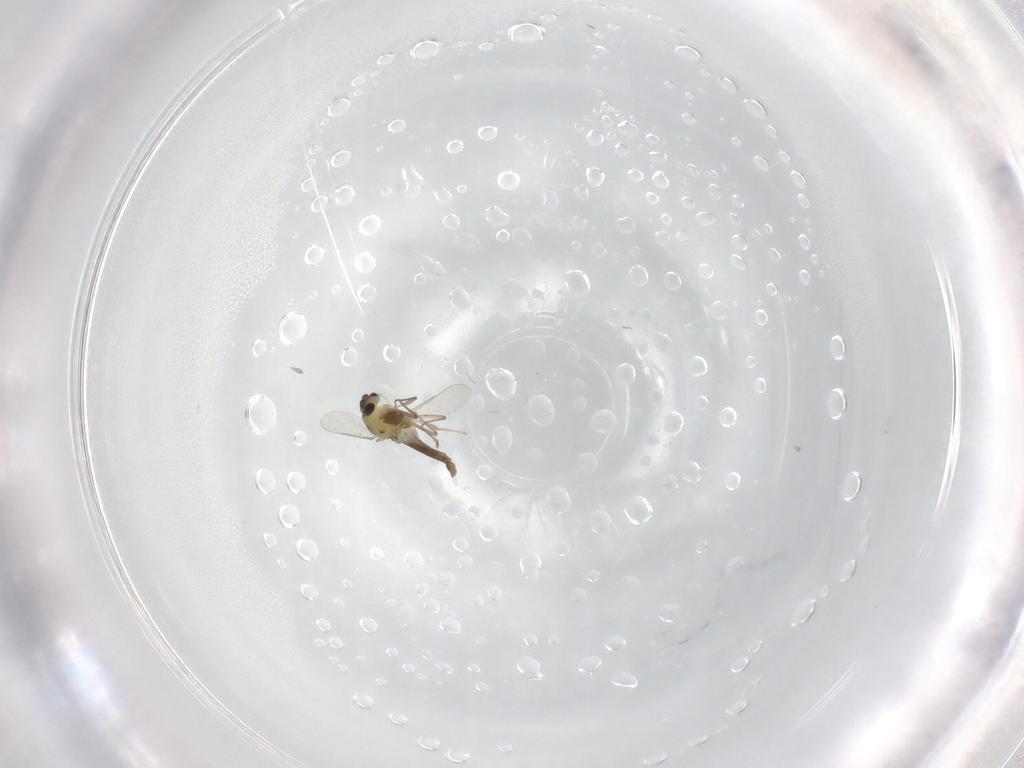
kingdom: Animalia
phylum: Arthropoda
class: Insecta
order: Diptera
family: Chironomidae
